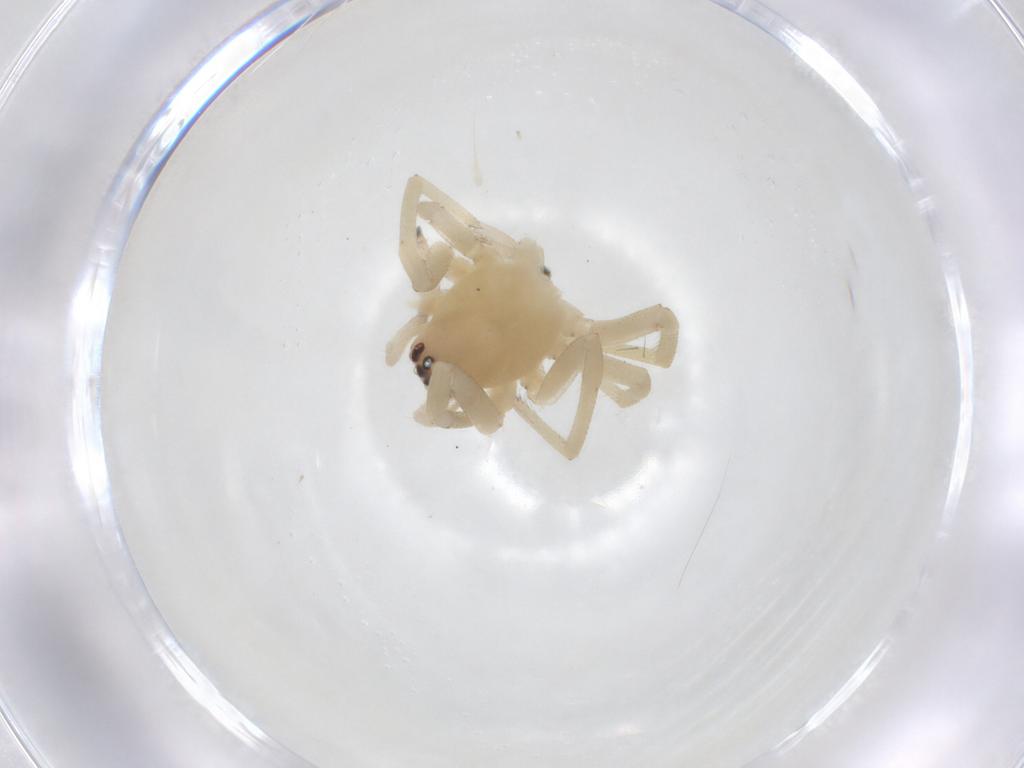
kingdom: Animalia
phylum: Arthropoda
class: Arachnida
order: Araneae
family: Cheiracanthiidae
